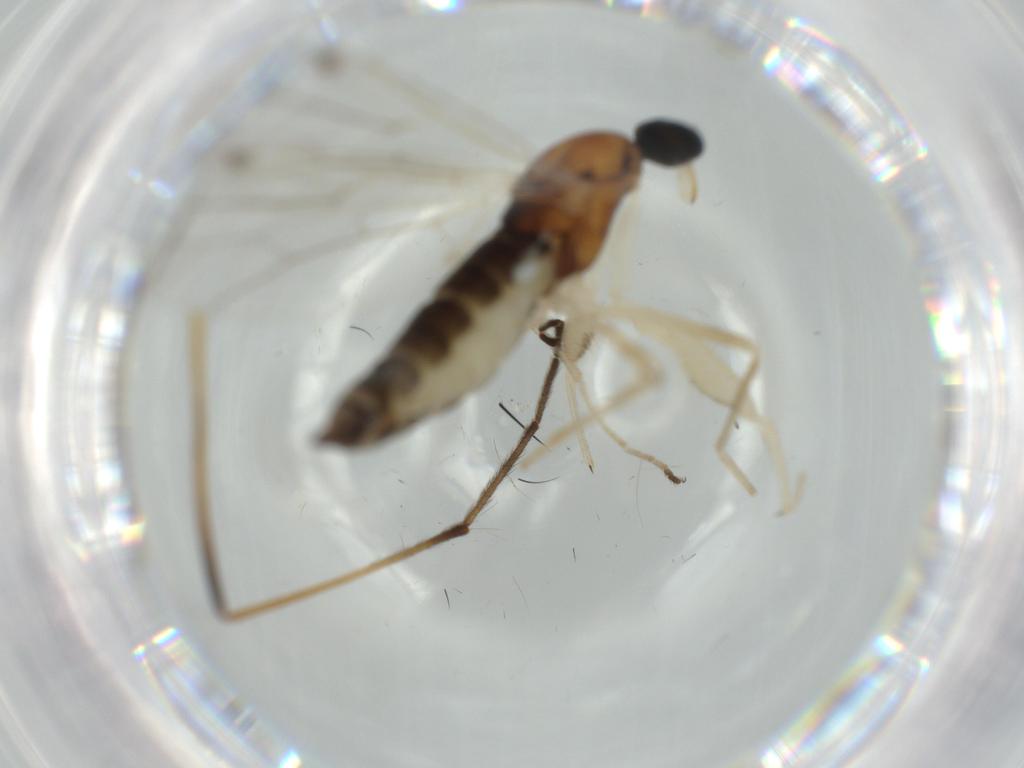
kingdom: Animalia
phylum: Arthropoda
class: Insecta
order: Diptera
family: Limoniidae
